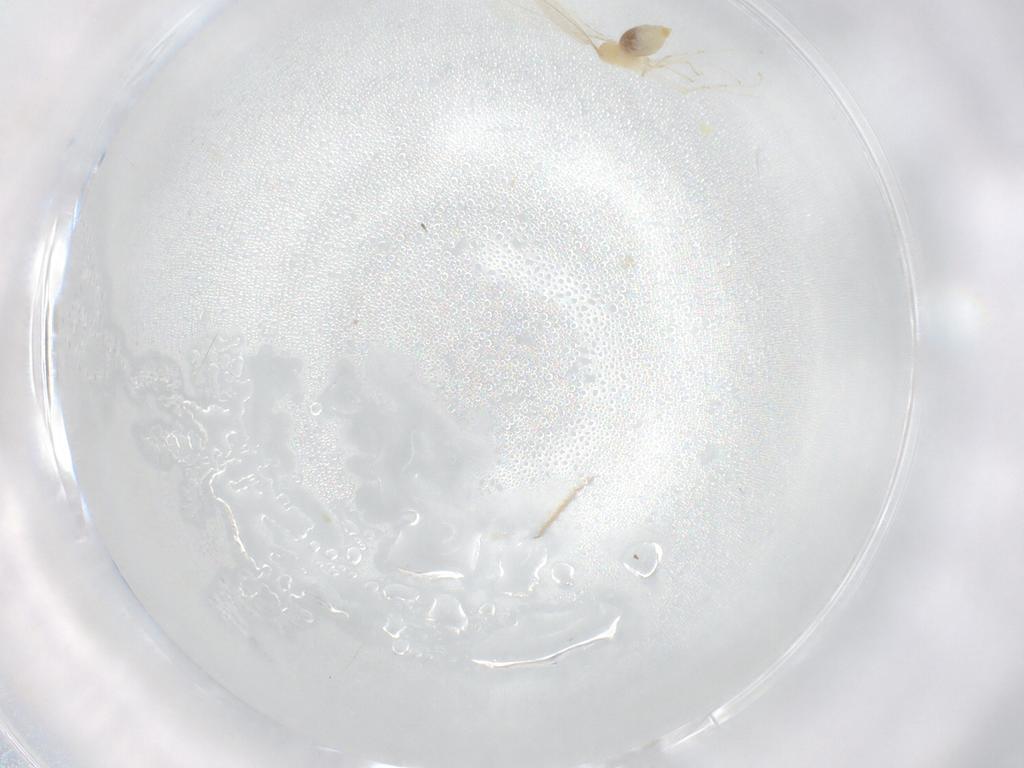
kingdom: Animalia
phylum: Arthropoda
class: Insecta
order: Diptera
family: Cecidomyiidae
